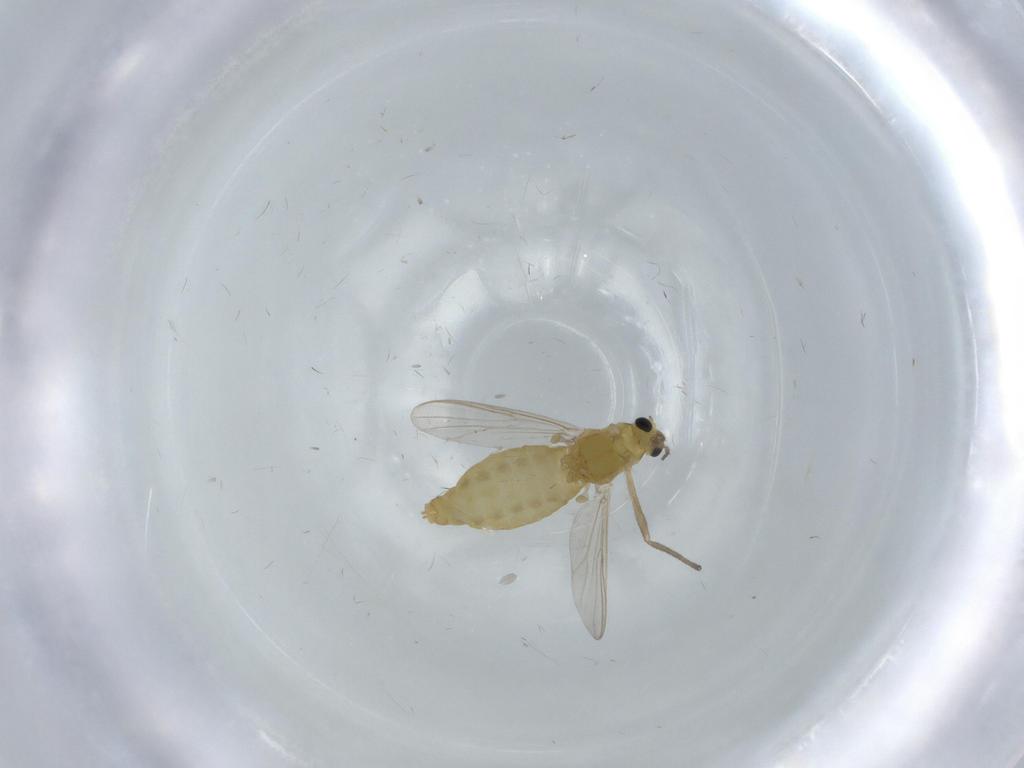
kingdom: Animalia
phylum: Arthropoda
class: Insecta
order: Diptera
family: Chironomidae
